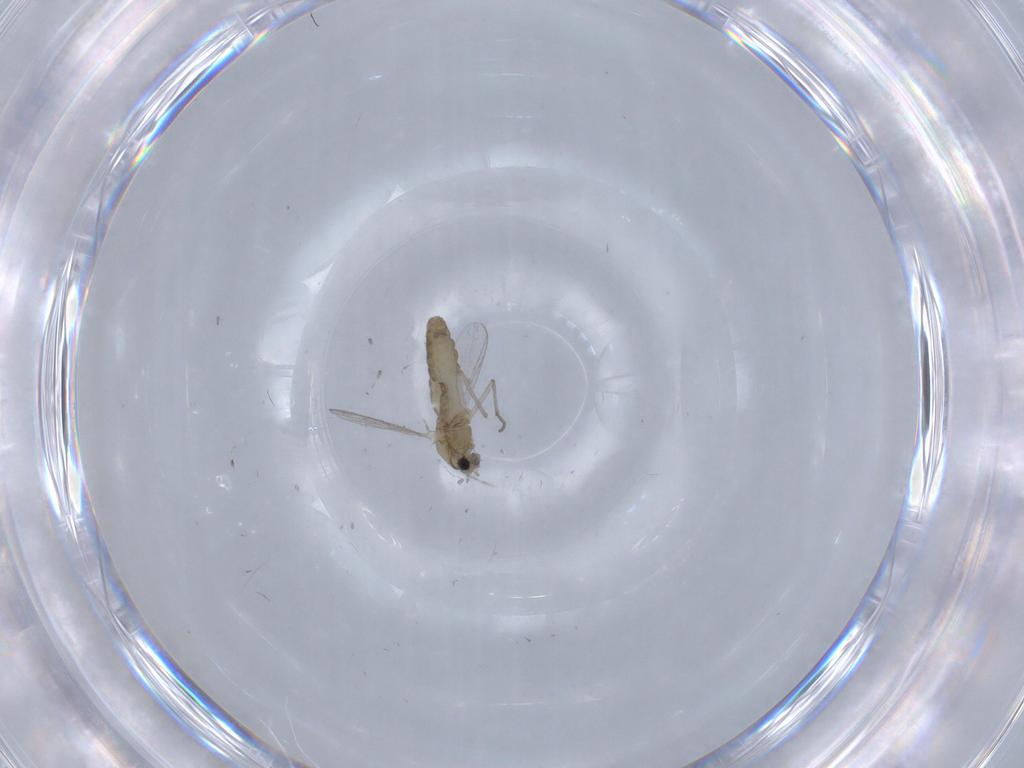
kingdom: Animalia
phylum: Arthropoda
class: Insecta
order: Diptera
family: Chironomidae
